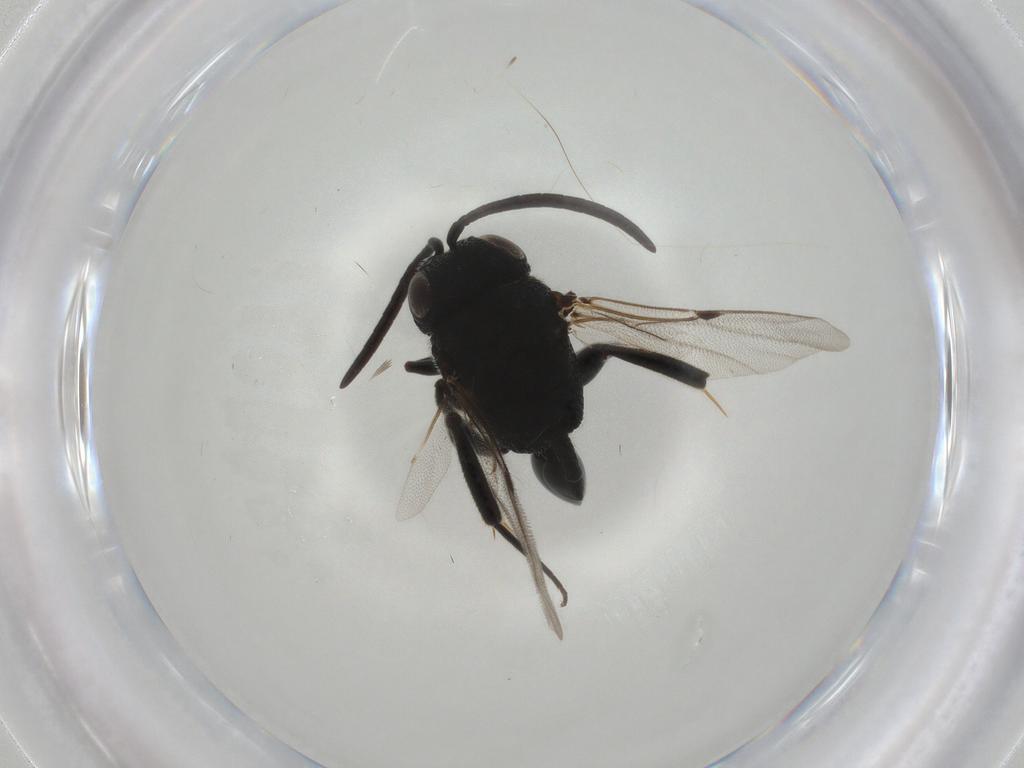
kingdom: Animalia
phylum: Arthropoda
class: Insecta
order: Hymenoptera
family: Evaniidae
